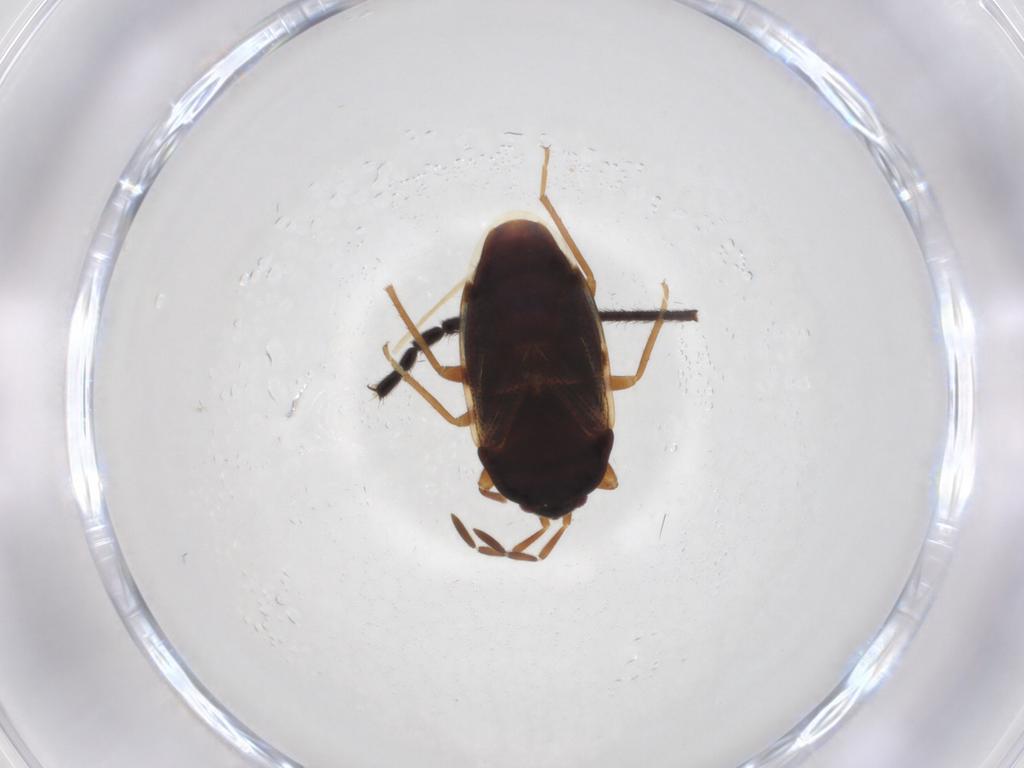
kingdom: Animalia
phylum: Arthropoda
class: Insecta
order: Hemiptera
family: Rhyparochromidae
